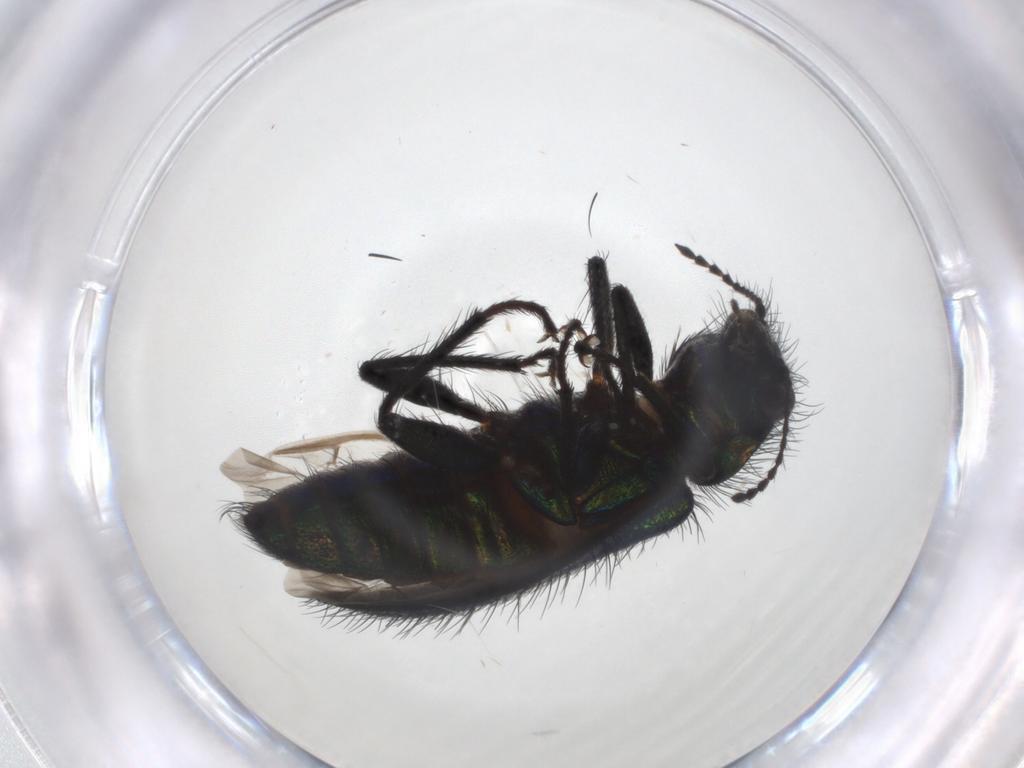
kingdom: Animalia
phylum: Arthropoda
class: Insecta
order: Coleoptera
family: Melyridae
